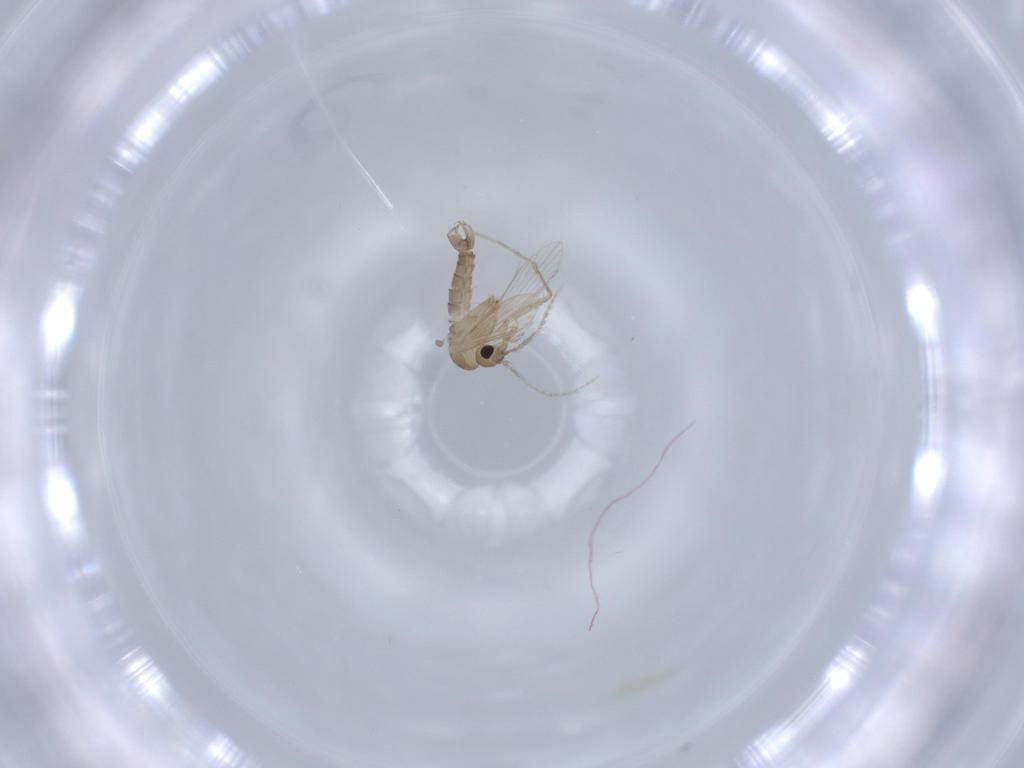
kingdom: Animalia
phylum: Arthropoda
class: Insecta
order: Diptera
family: Psychodidae
